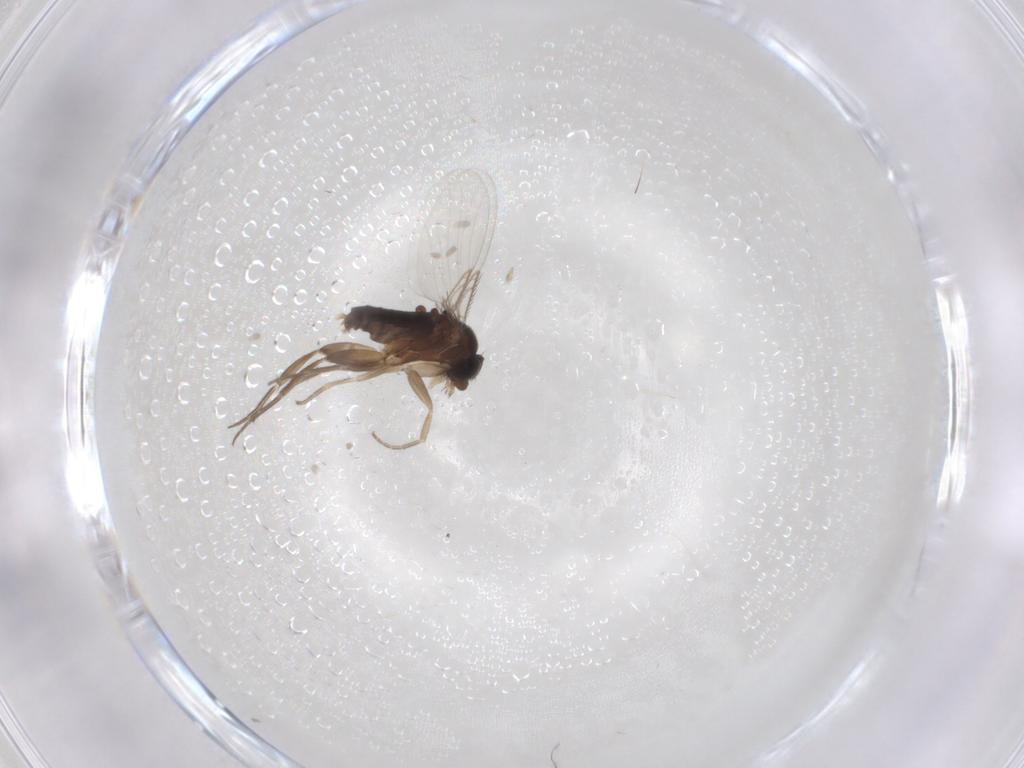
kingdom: Animalia
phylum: Arthropoda
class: Insecta
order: Diptera
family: Phoridae
